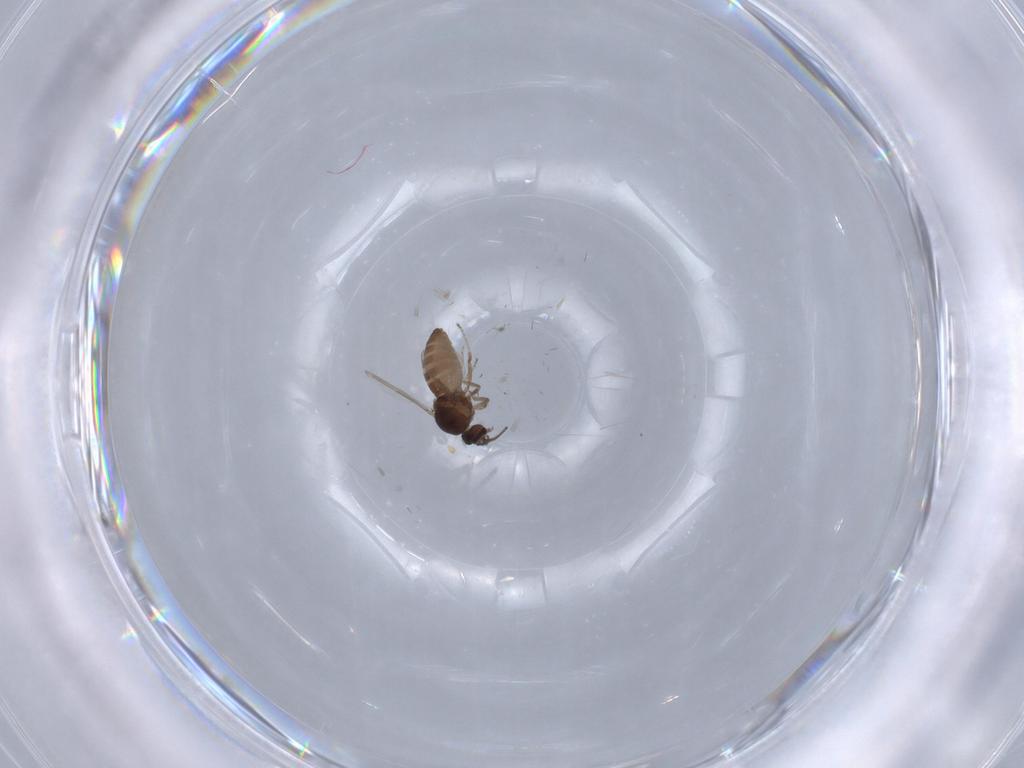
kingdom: Animalia
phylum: Arthropoda
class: Insecta
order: Diptera
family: Ceratopogonidae
